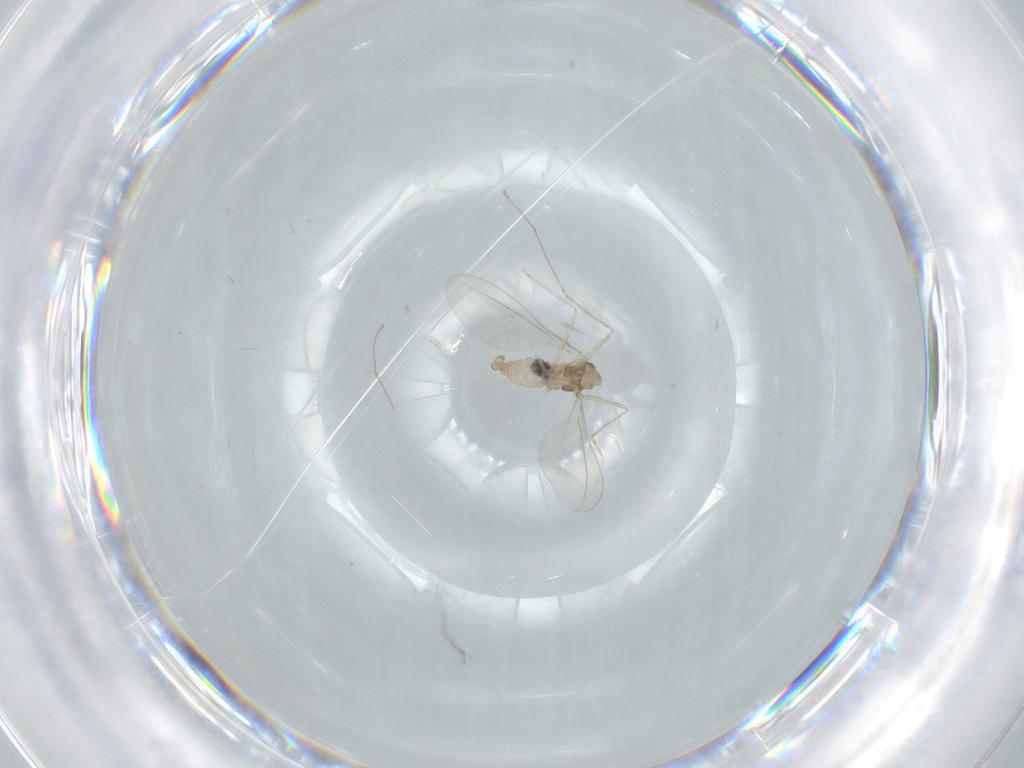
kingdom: Animalia
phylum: Arthropoda
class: Insecta
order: Diptera
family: Cecidomyiidae
